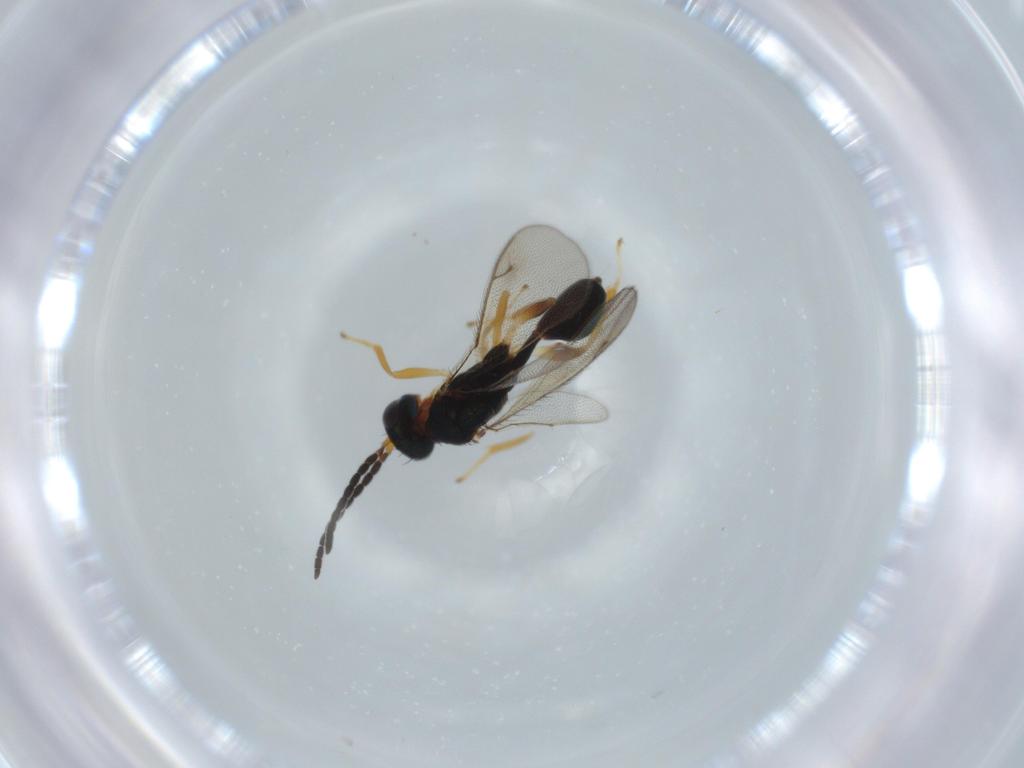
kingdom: Animalia
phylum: Arthropoda
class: Insecta
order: Hymenoptera
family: Diparidae
